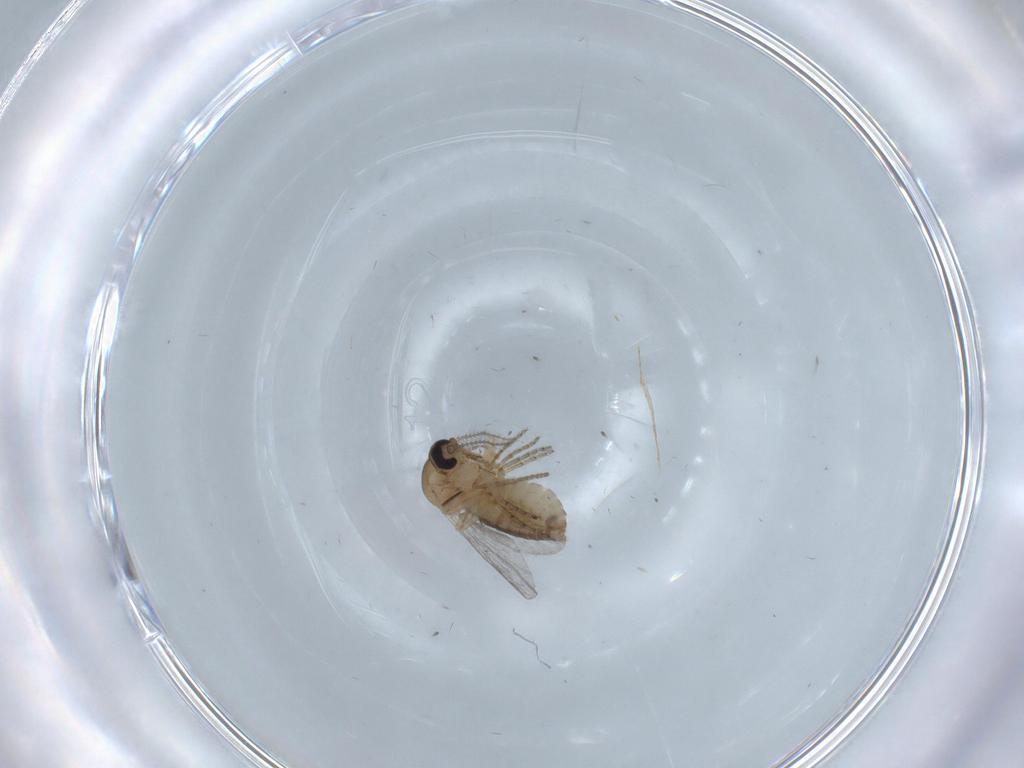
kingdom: Animalia
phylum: Arthropoda
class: Insecta
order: Diptera
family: Ceratopogonidae
